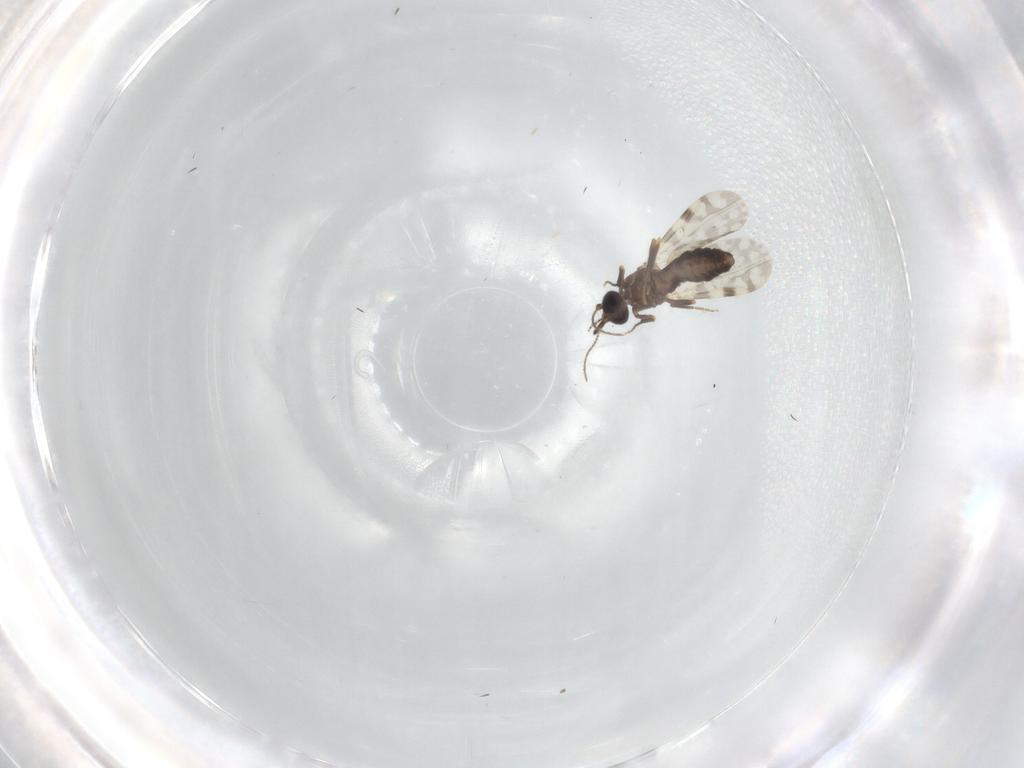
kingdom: Animalia
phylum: Arthropoda
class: Insecta
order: Diptera
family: Ceratopogonidae
